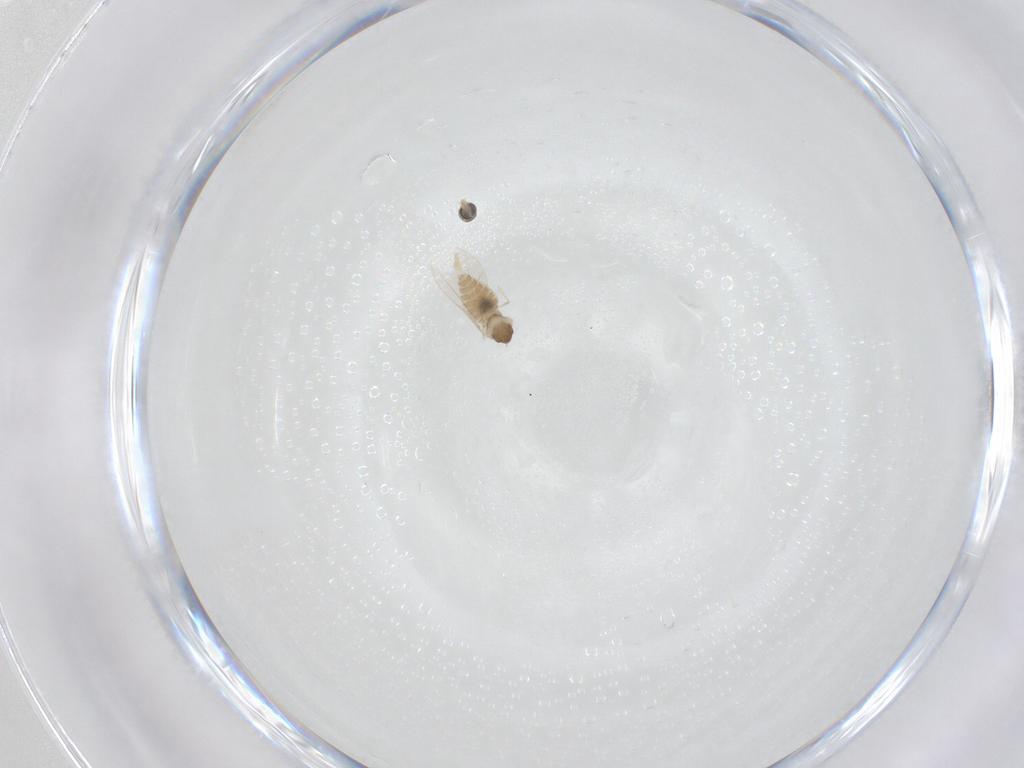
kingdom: Animalia
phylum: Arthropoda
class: Insecta
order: Diptera
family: Cecidomyiidae
